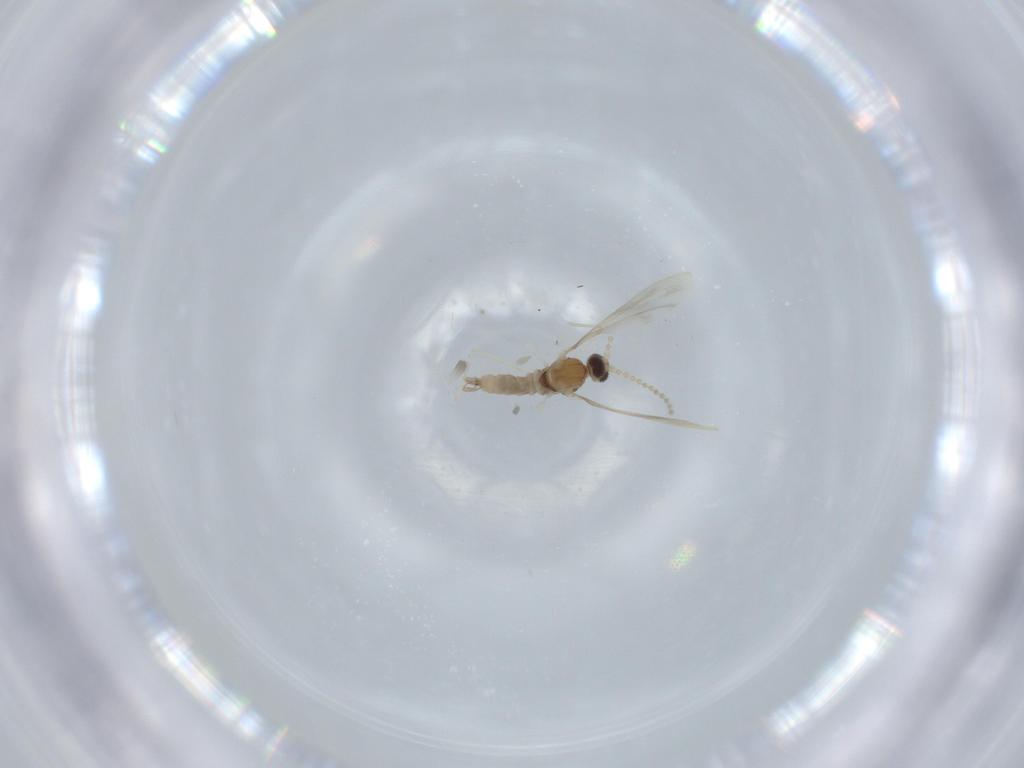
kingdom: Animalia
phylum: Arthropoda
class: Insecta
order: Diptera
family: Cecidomyiidae
